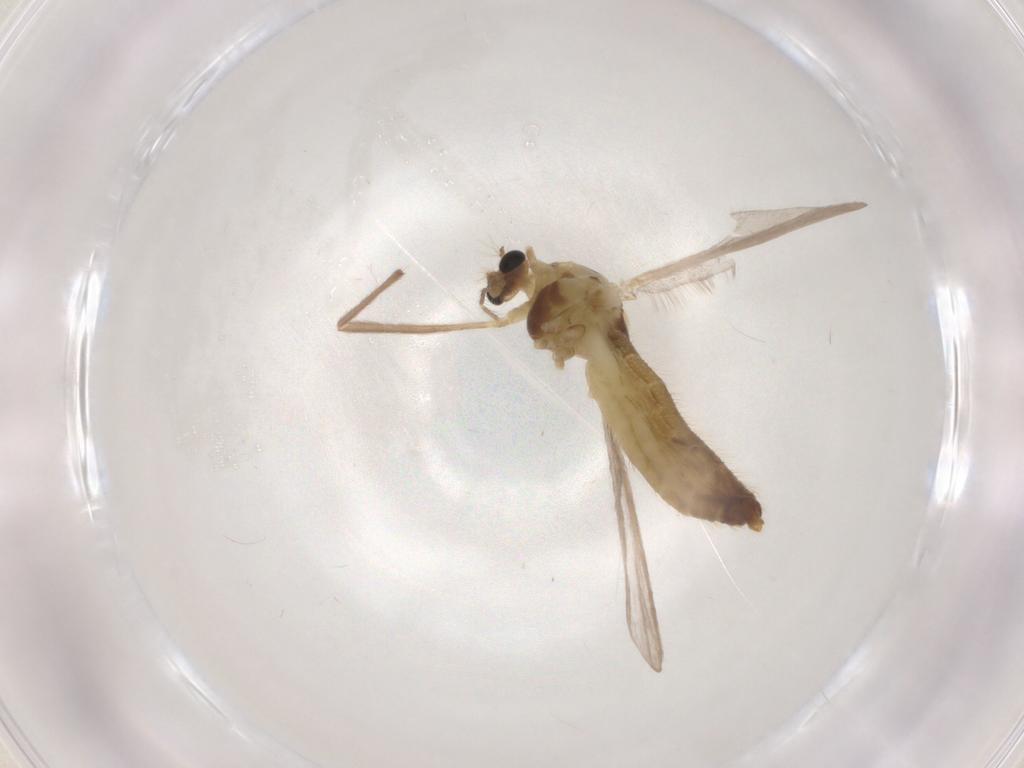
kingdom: Animalia
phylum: Arthropoda
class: Insecta
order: Diptera
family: Chironomidae
